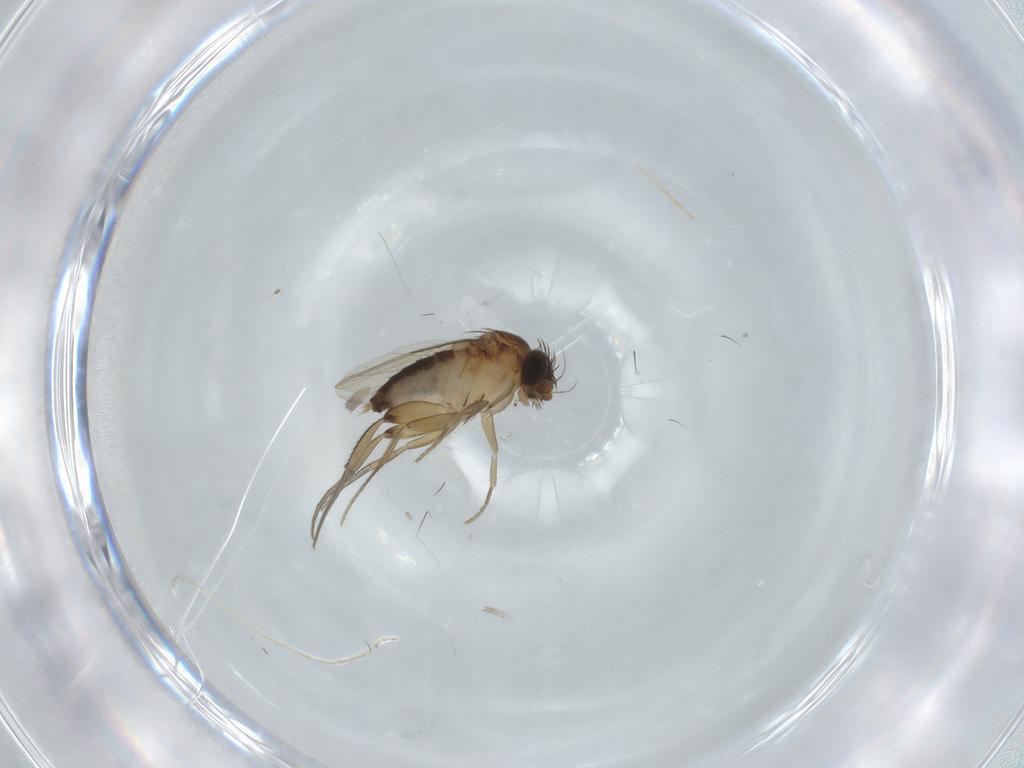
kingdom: Animalia
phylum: Arthropoda
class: Insecta
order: Diptera
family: Phoridae
